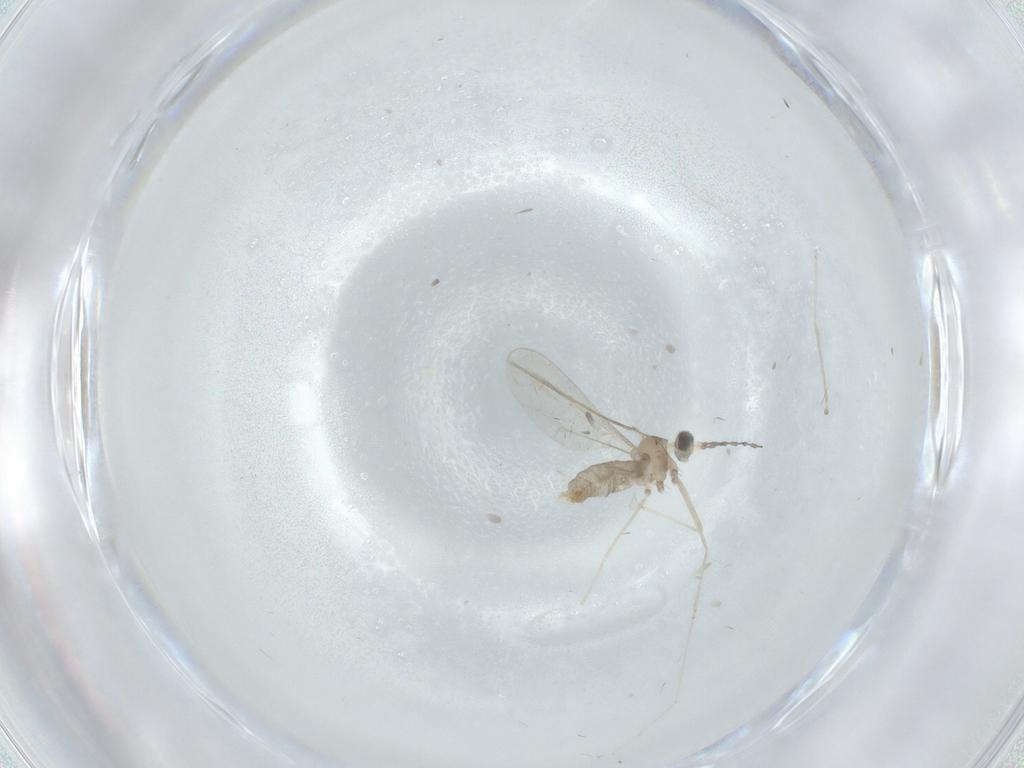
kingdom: Animalia
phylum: Arthropoda
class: Insecta
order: Diptera
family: Cecidomyiidae
